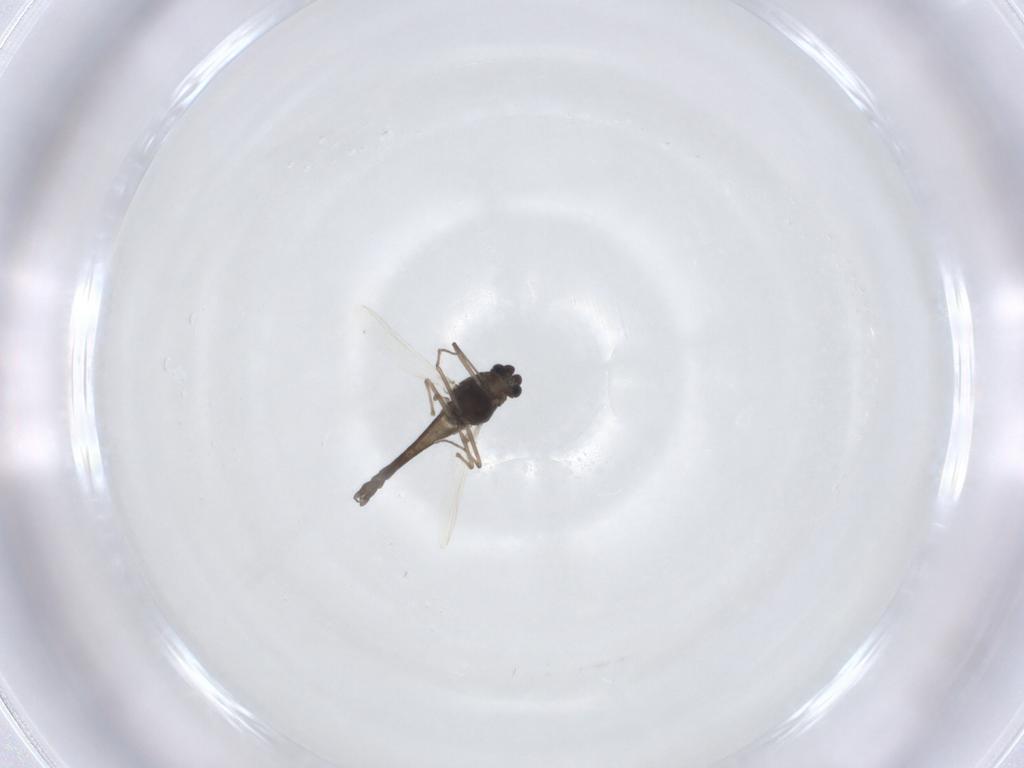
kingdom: Animalia
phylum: Arthropoda
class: Insecta
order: Diptera
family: Chironomidae
